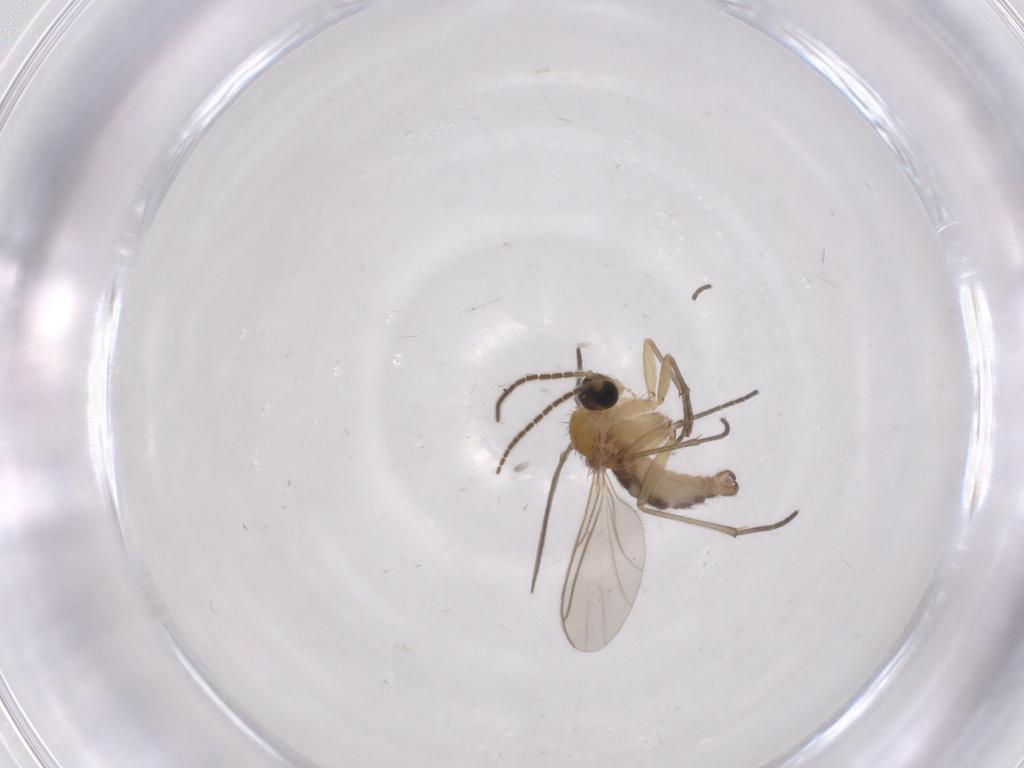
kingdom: Animalia
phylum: Arthropoda
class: Insecta
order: Diptera
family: Sciaridae
